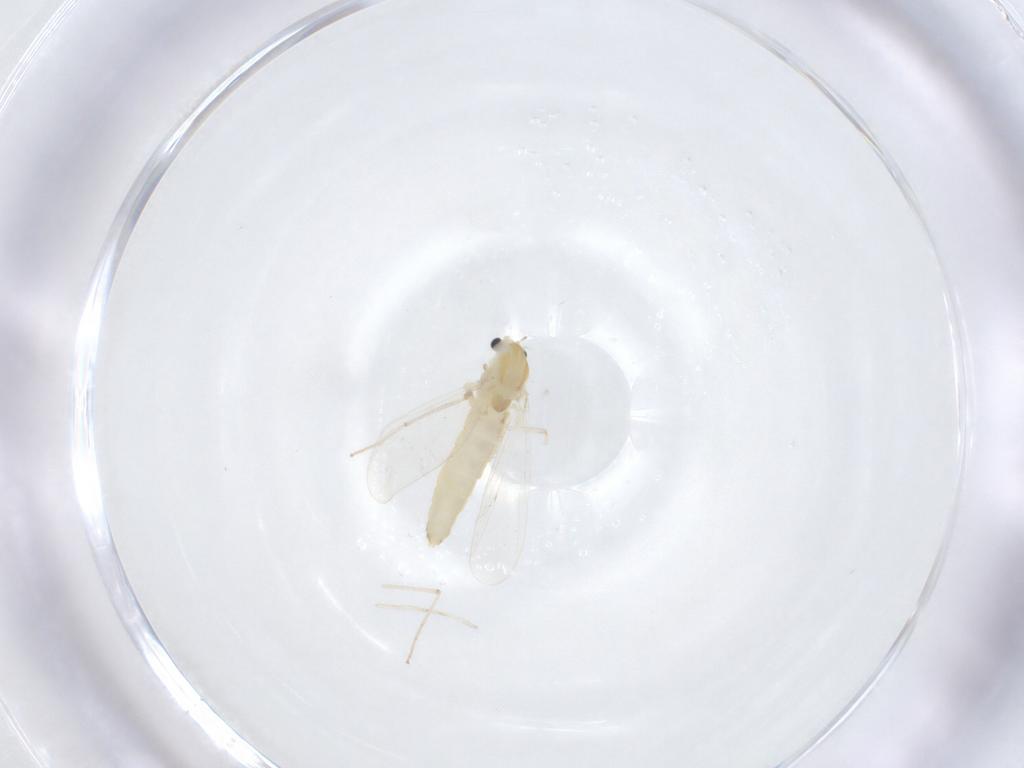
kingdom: Animalia
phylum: Arthropoda
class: Insecta
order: Diptera
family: Chironomidae
